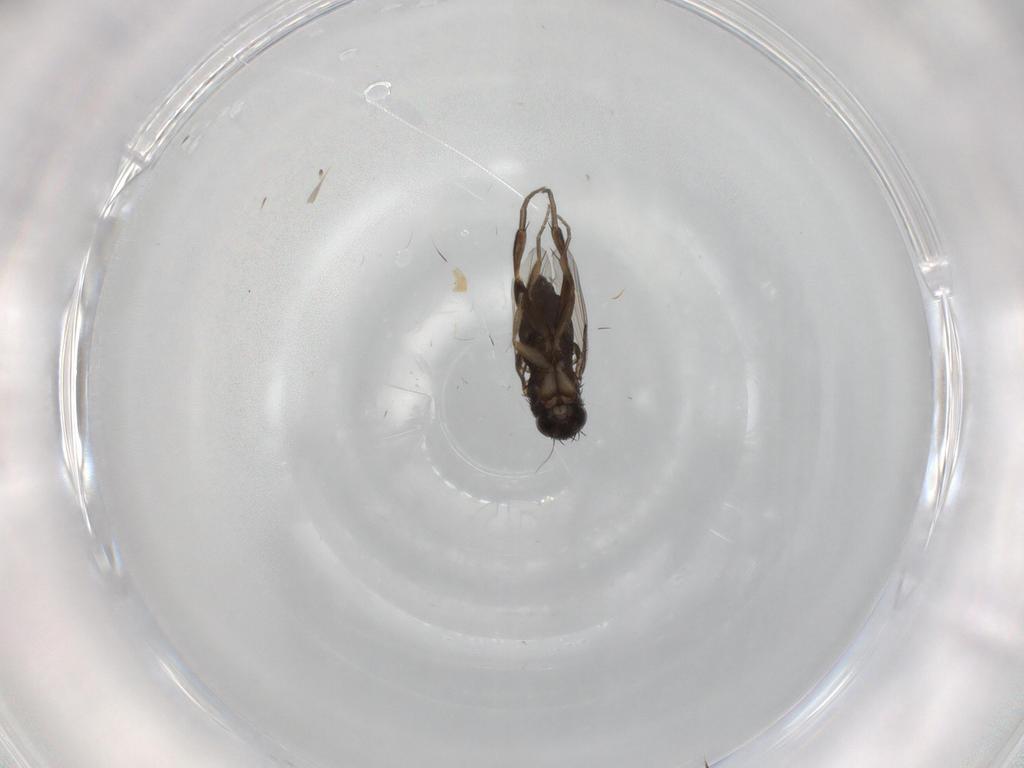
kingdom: Animalia
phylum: Arthropoda
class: Insecta
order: Diptera
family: Phoridae
